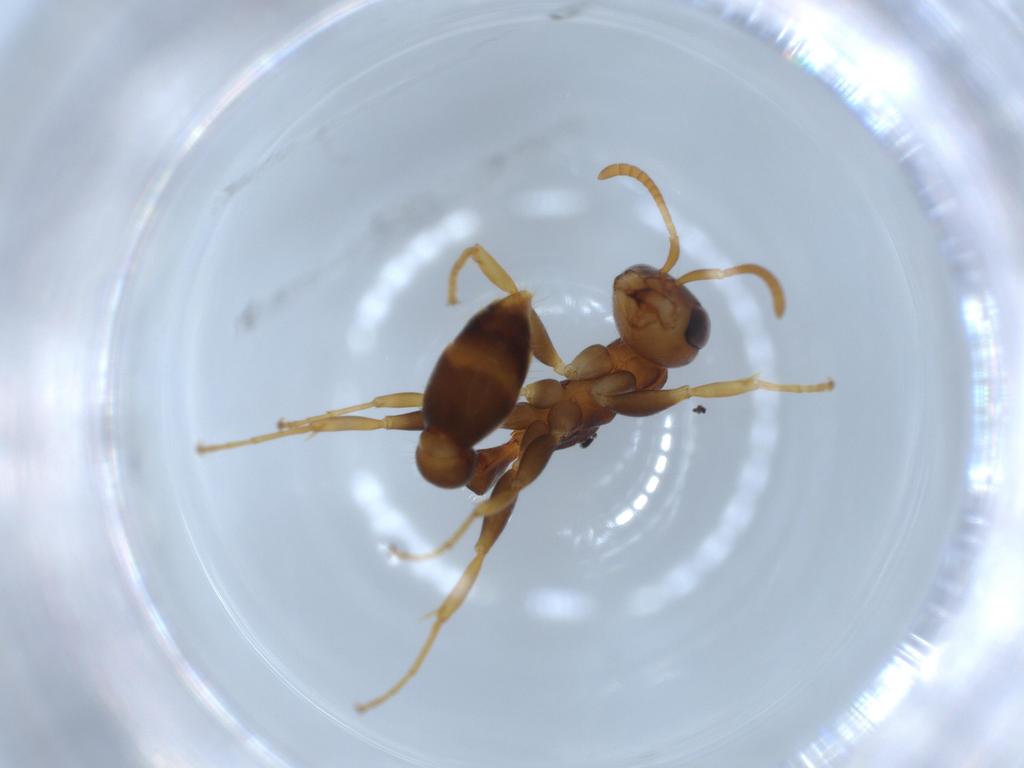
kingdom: Animalia
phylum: Arthropoda
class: Insecta
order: Hymenoptera
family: Formicidae
